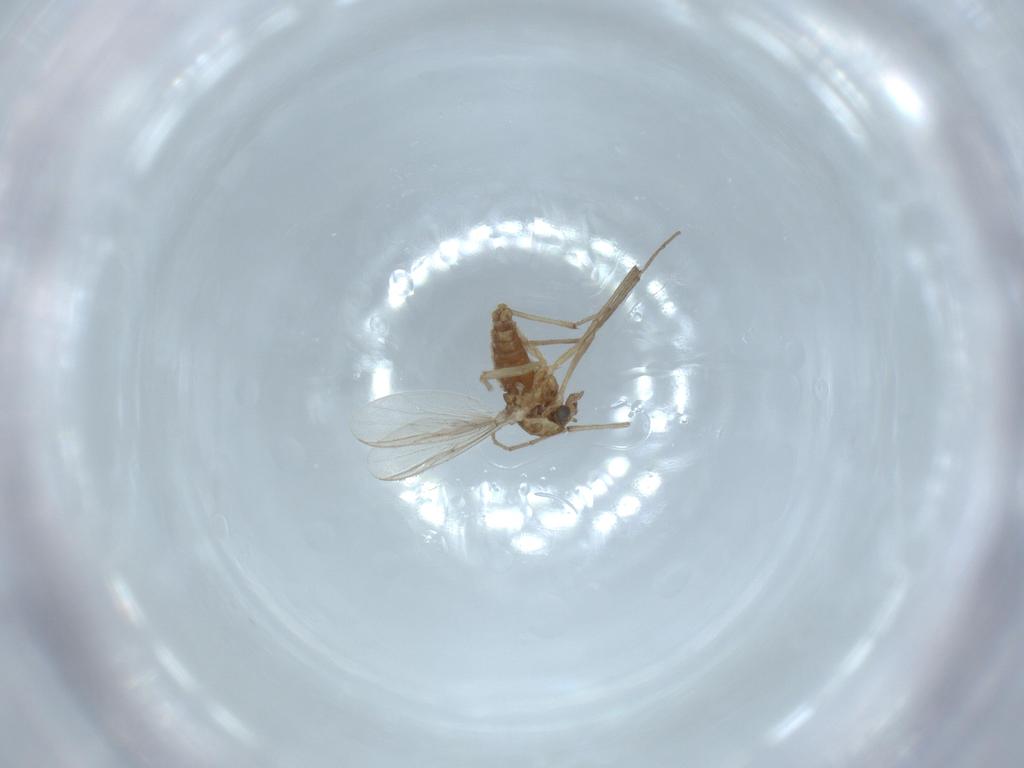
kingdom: Animalia
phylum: Arthropoda
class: Insecta
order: Diptera
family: Chironomidae
